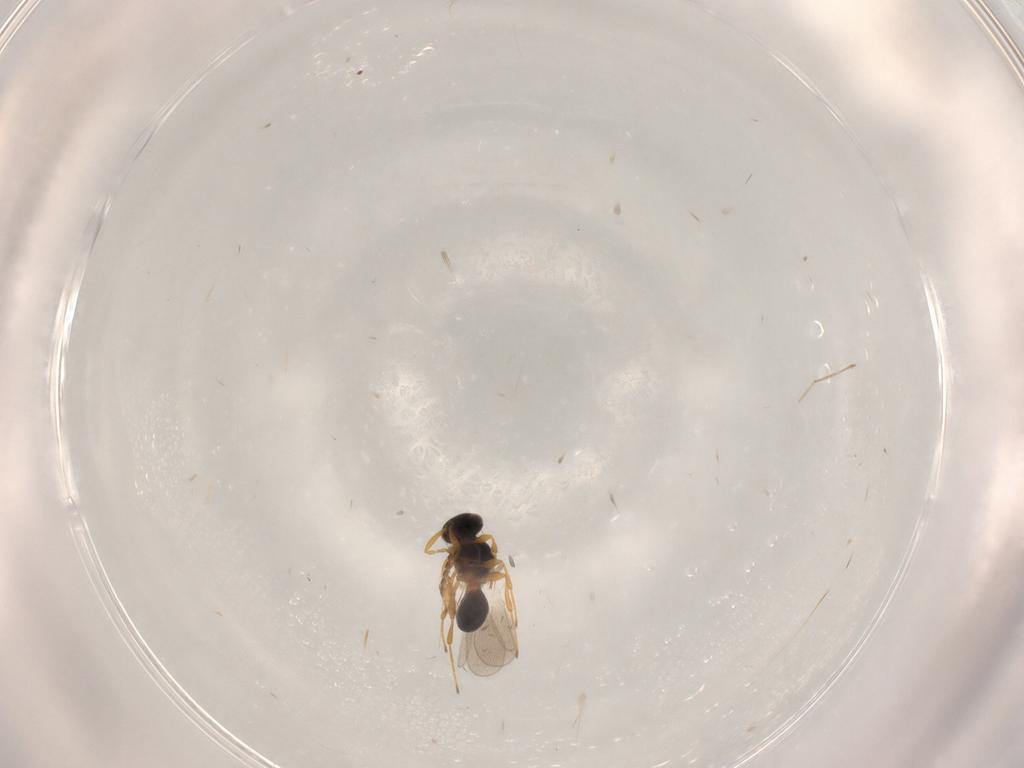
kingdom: Animalia
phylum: Arthropoda
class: Insecta
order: Hymenoptera
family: Platygastridae
